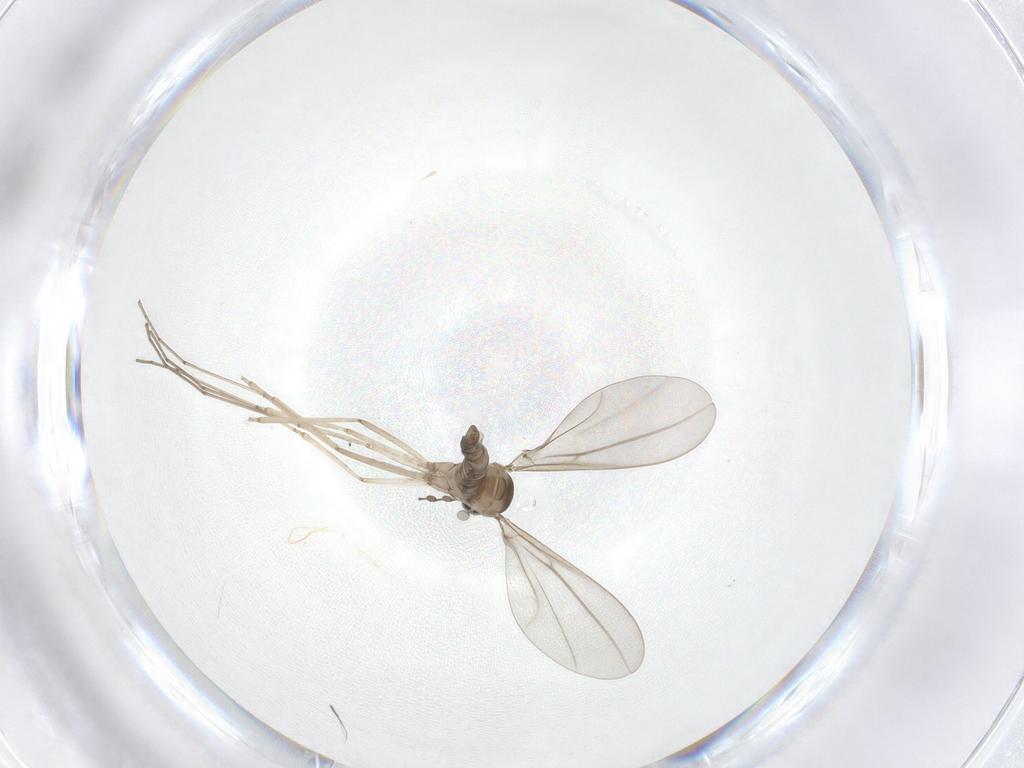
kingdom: Animalia
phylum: Arthropoda
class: Insecta
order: Diptera
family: Cecidomyiidae
